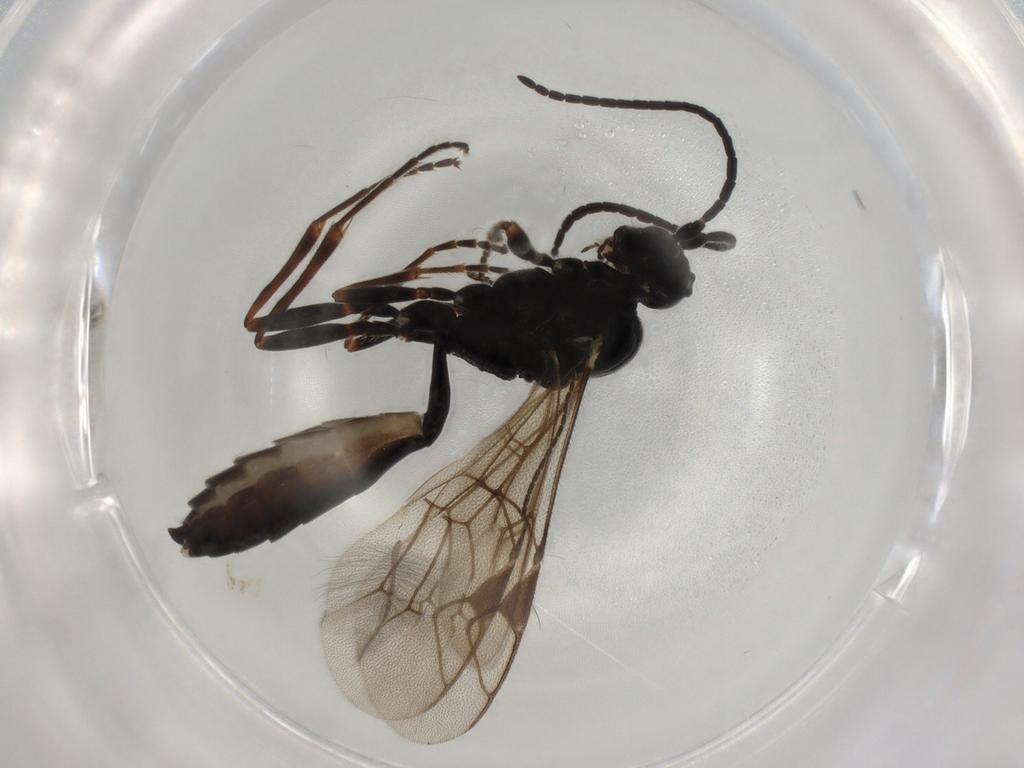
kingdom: Animalia
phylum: Arthropoda
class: Insecta
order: Hymenoptera
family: Ichneumonidae
